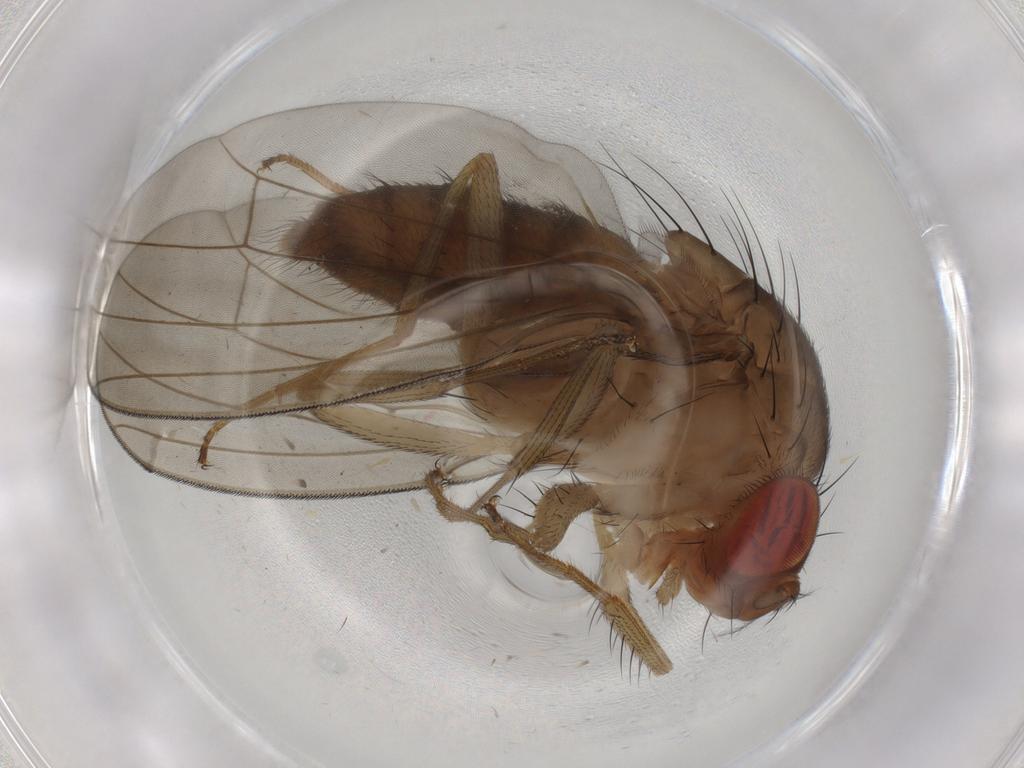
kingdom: Animalia
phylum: Arthropoda
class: Insecta
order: Diptera
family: Drosophilidae
